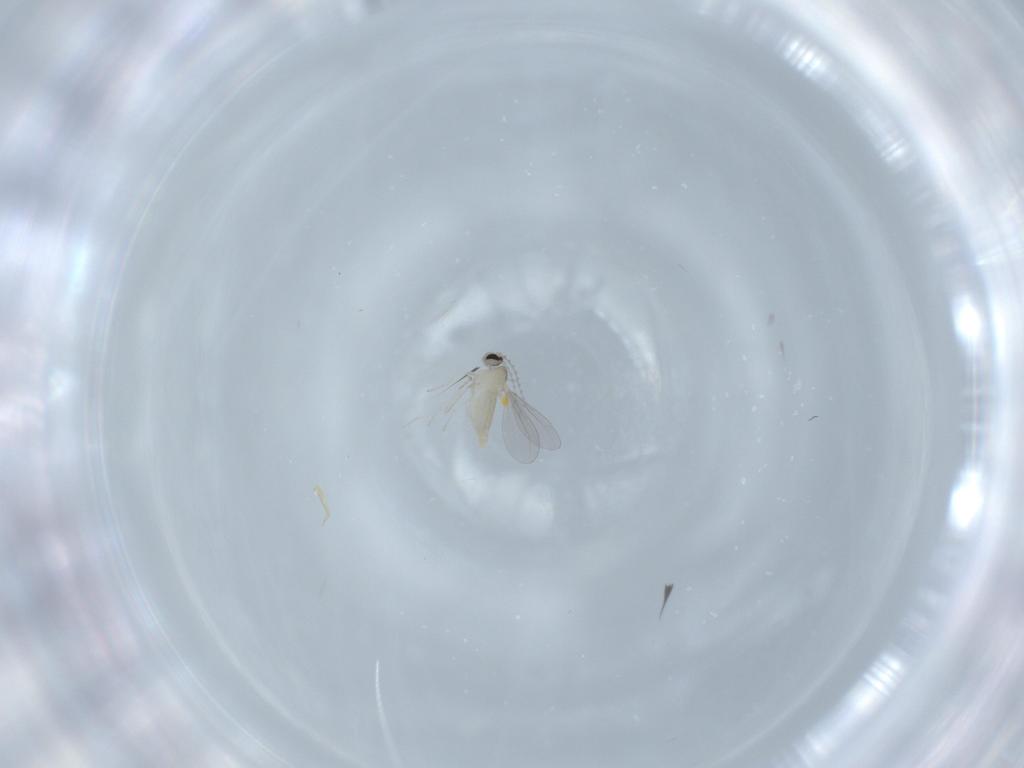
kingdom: Animalia
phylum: Arthropoda
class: Insecta
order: Diptera
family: Cecidomyiidae
